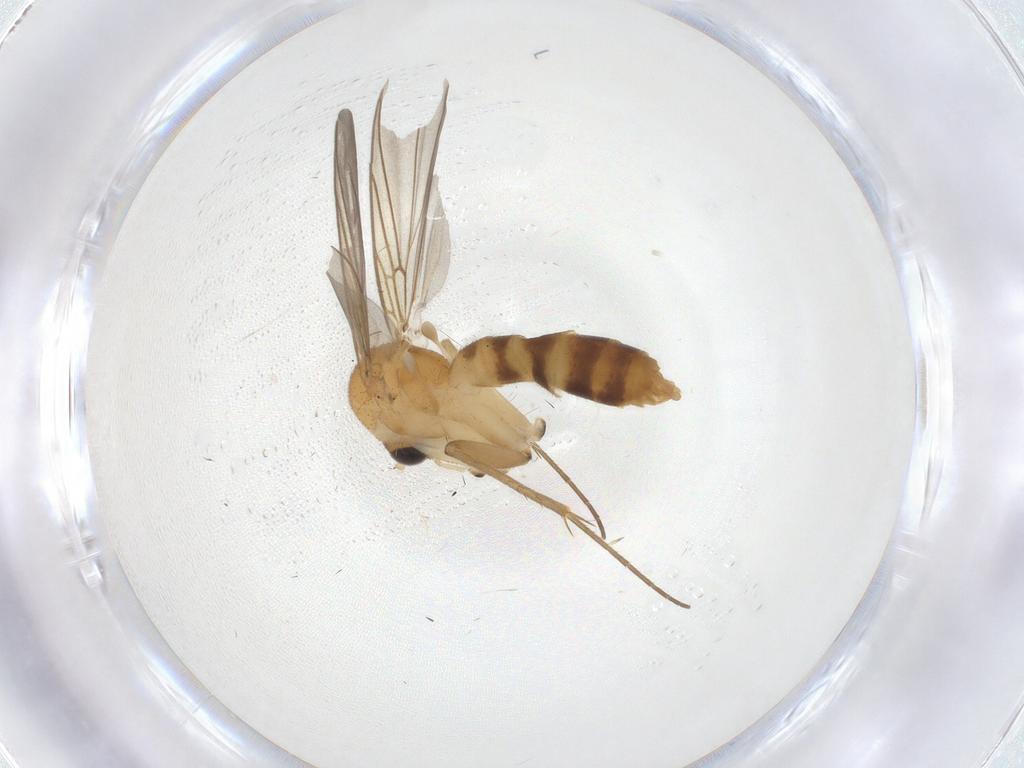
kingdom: Animalia
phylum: Arthropoda
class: Insecta
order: Diptera
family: Mycetophilidae
